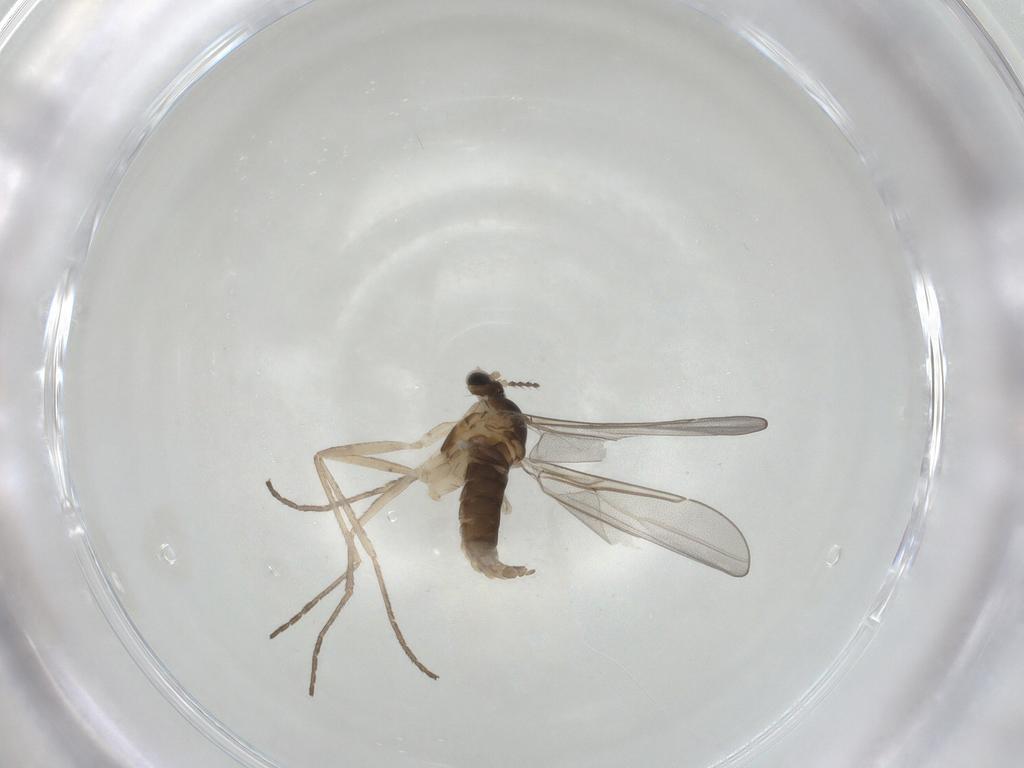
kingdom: Animalia
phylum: Arthropoda
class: Insecta
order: Diptera
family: Cecidomyiidae
